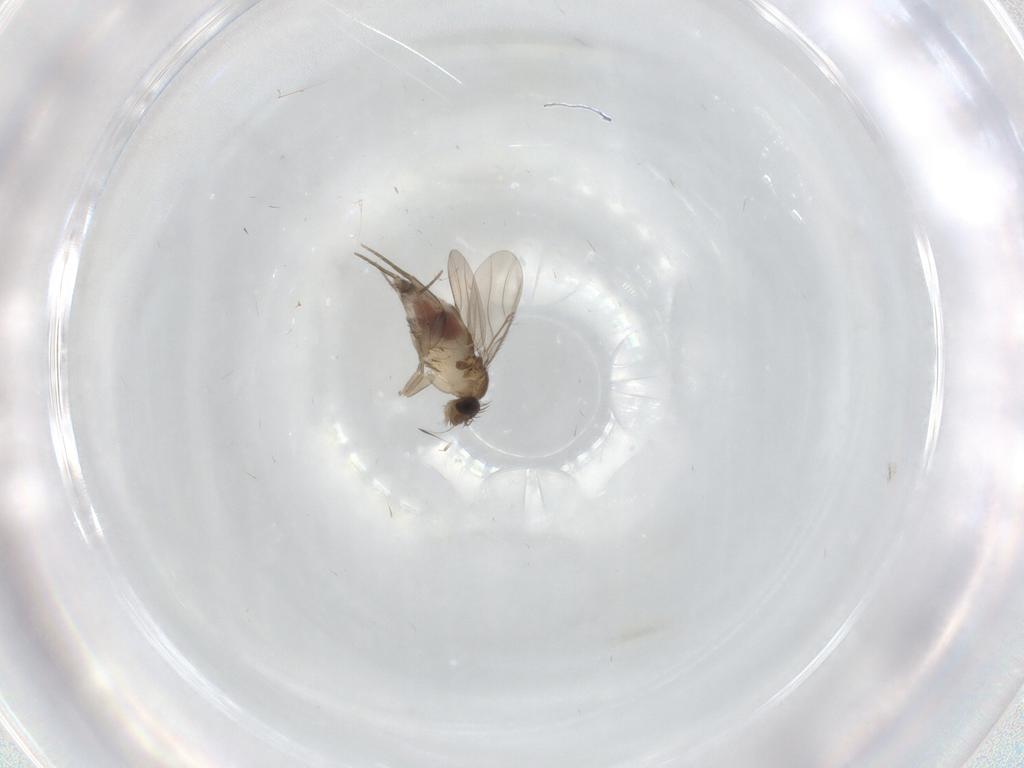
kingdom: Animalia
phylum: Arthropoda
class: Insecta
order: Diptera
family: Phoridae
